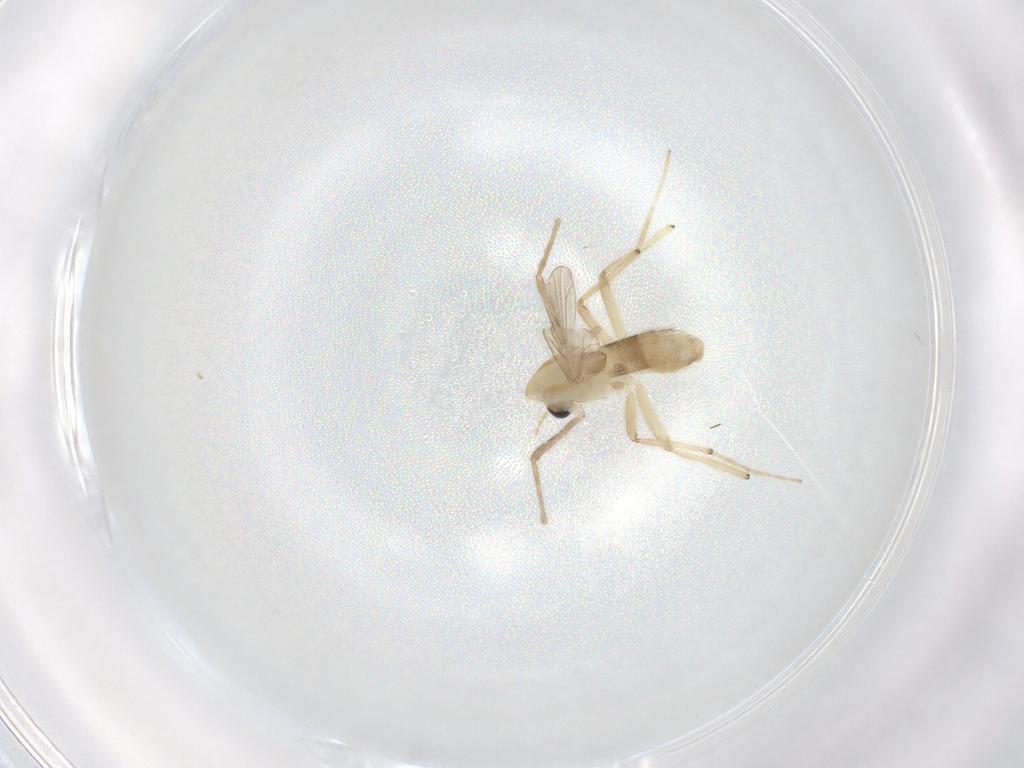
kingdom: Animalia
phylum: Arthropoda
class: Insecta
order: Diptera
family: Chironomidae
